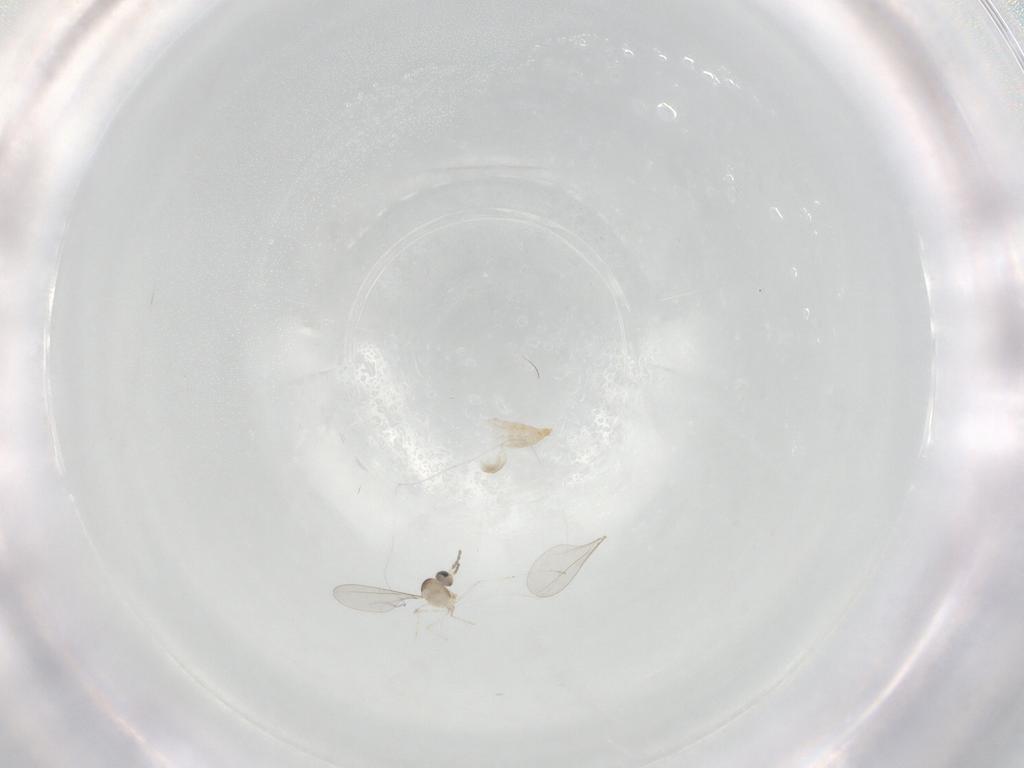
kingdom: Animalia
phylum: Arthropoda
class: Insecta
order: Diptera
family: Cecidomyiidae
